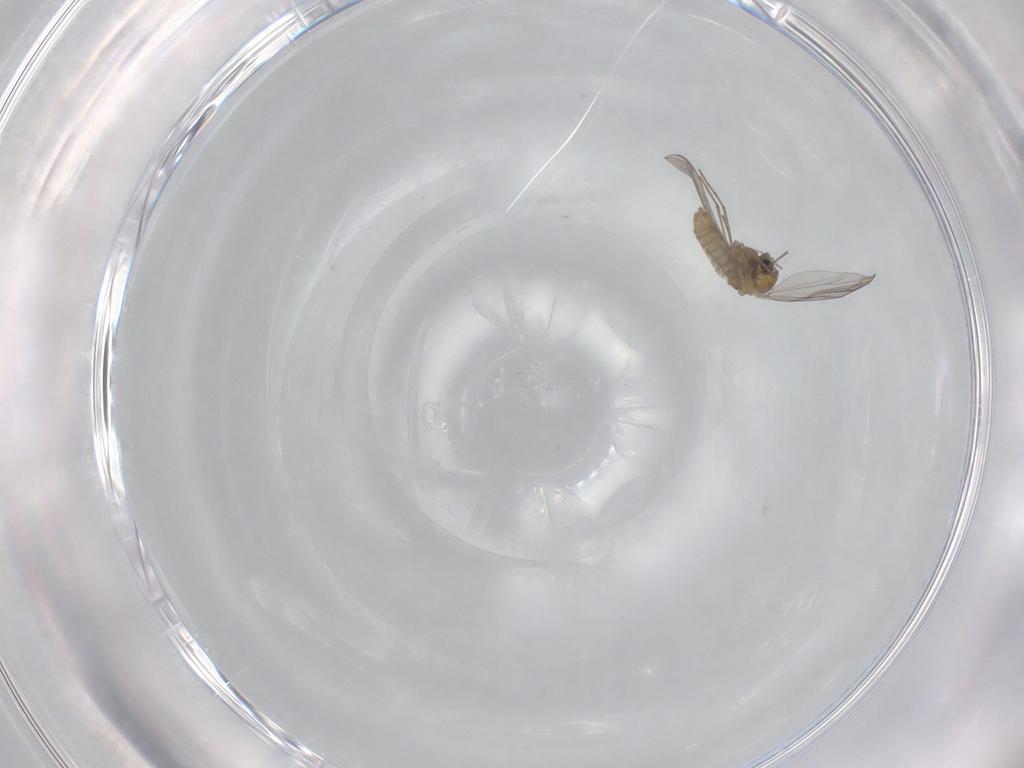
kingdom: Animalia
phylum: Arthropoda
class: Insecta
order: Diptera
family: Chironomidae
